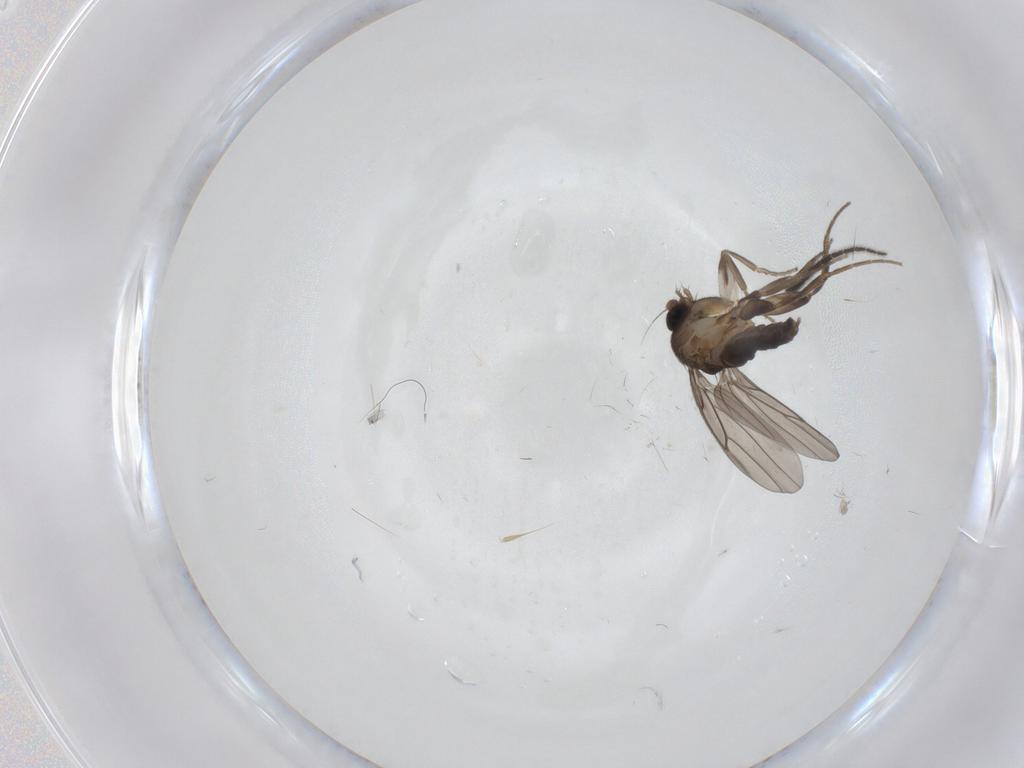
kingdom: Animalia
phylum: Arthropoda
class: Insecta
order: Diptera
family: Sciaridae
